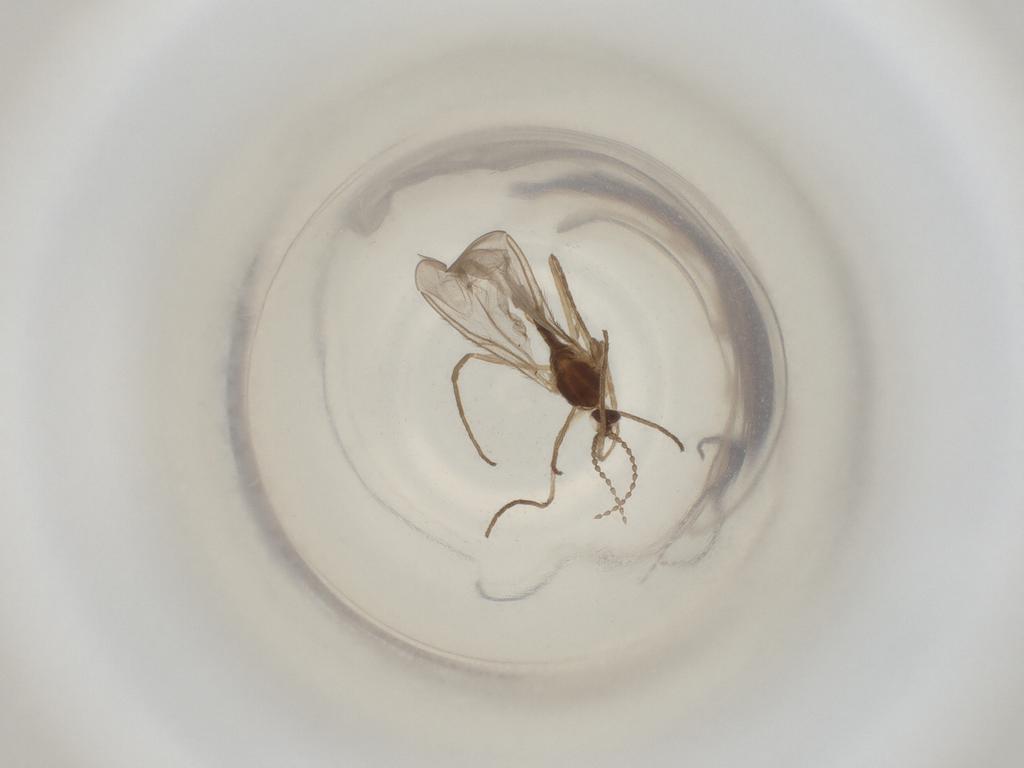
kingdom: Animalia
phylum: Arthropoda
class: Insecta
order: Diptera
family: Cecidomyiidae
